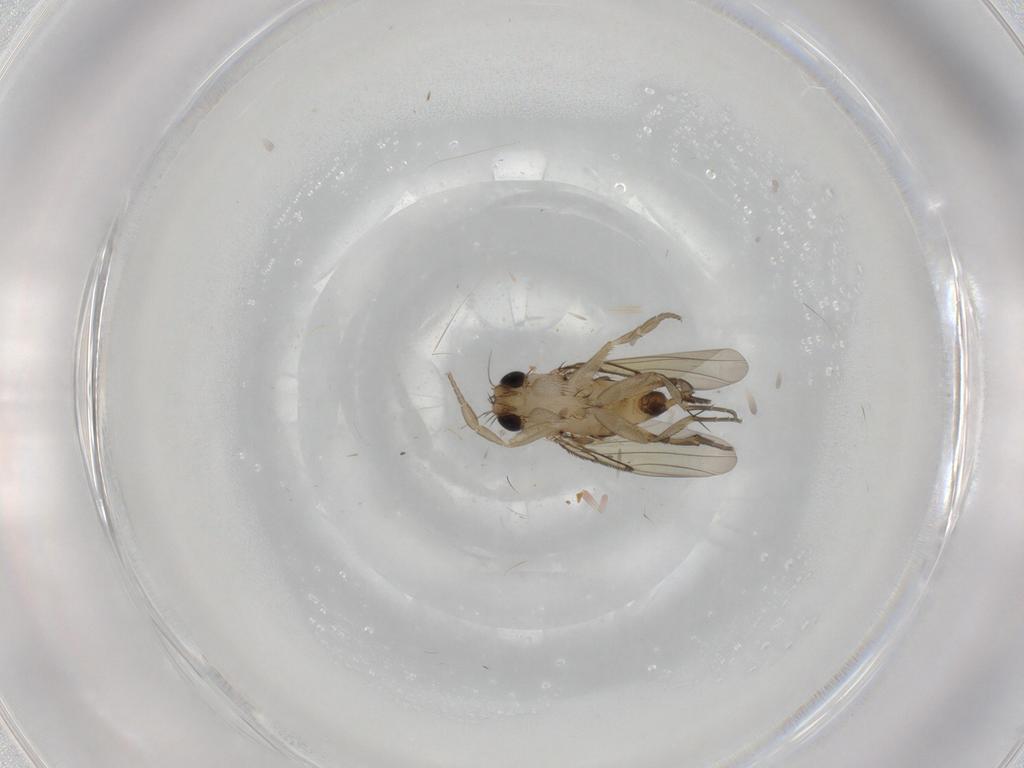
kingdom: Animalia
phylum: Arthropoda
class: Insecta
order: Diptera
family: Phoridae
